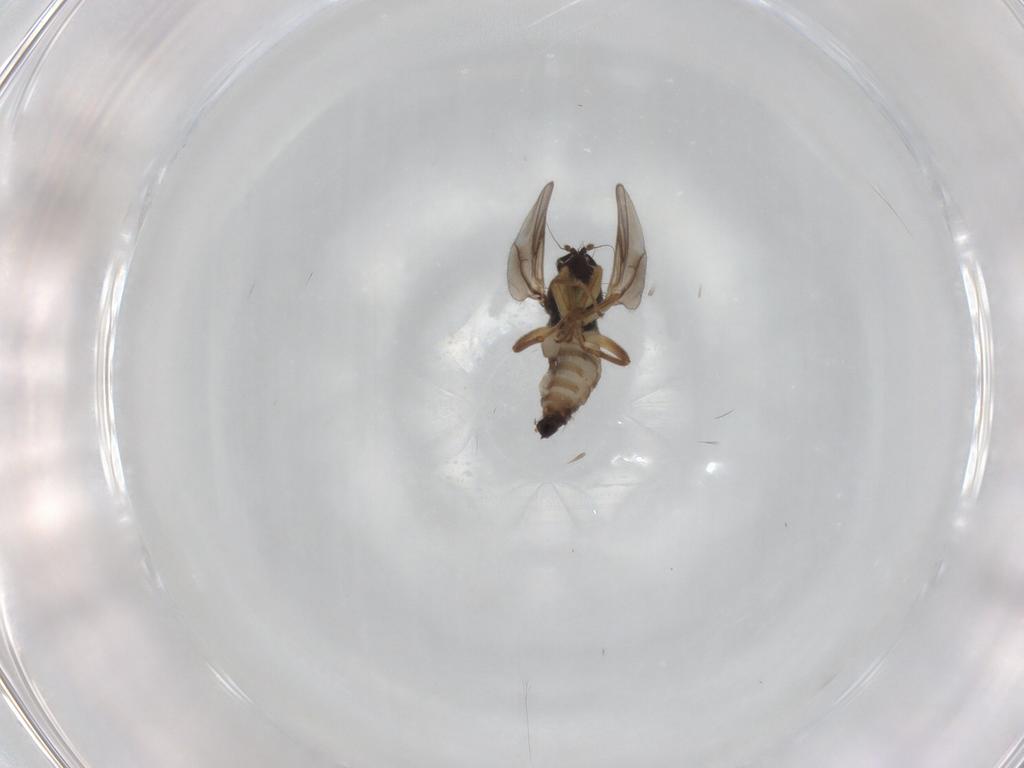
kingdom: Animalia
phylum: Arthropoda
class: Insecta
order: Diptera
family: Hybotidae
